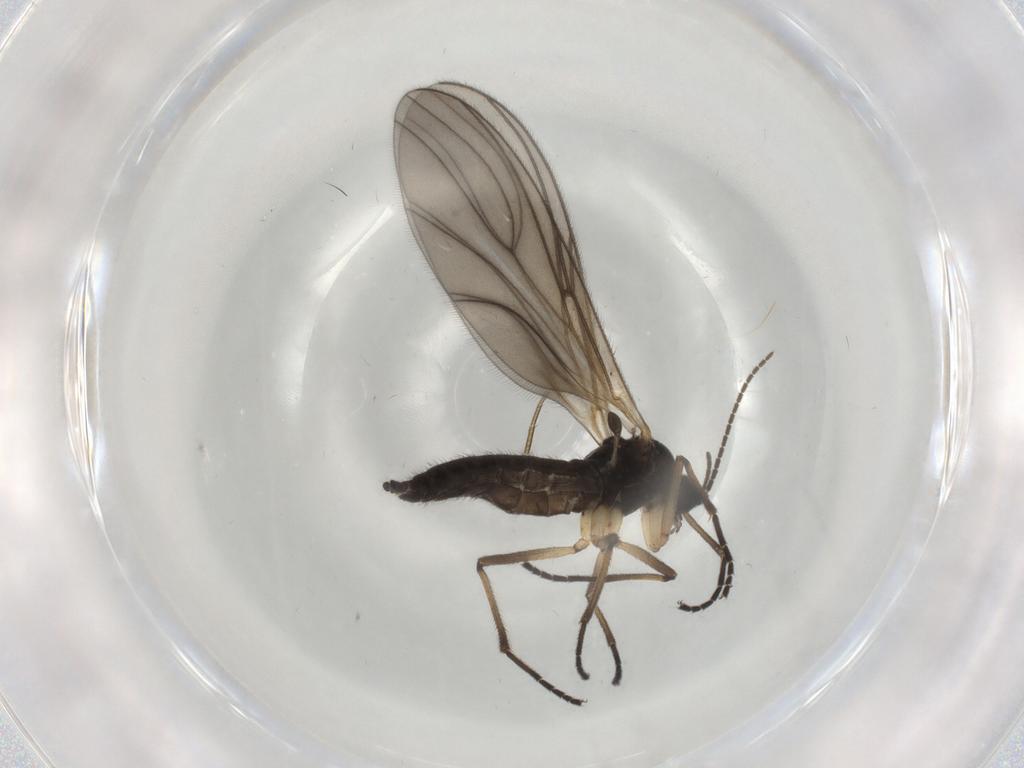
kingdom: Animalia
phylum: Arthropoda
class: Insecta
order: Diptera
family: Sciaridae
